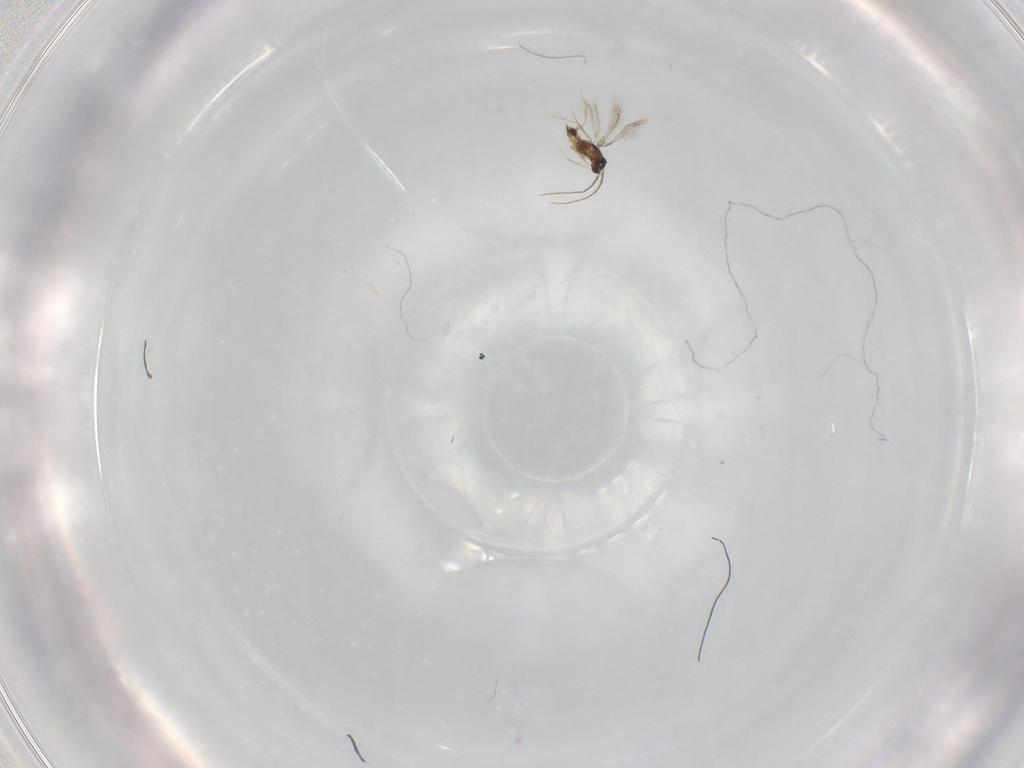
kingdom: Animalia
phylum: Arthropoda
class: Insecta
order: Hymenoptera
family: Mymaridae
